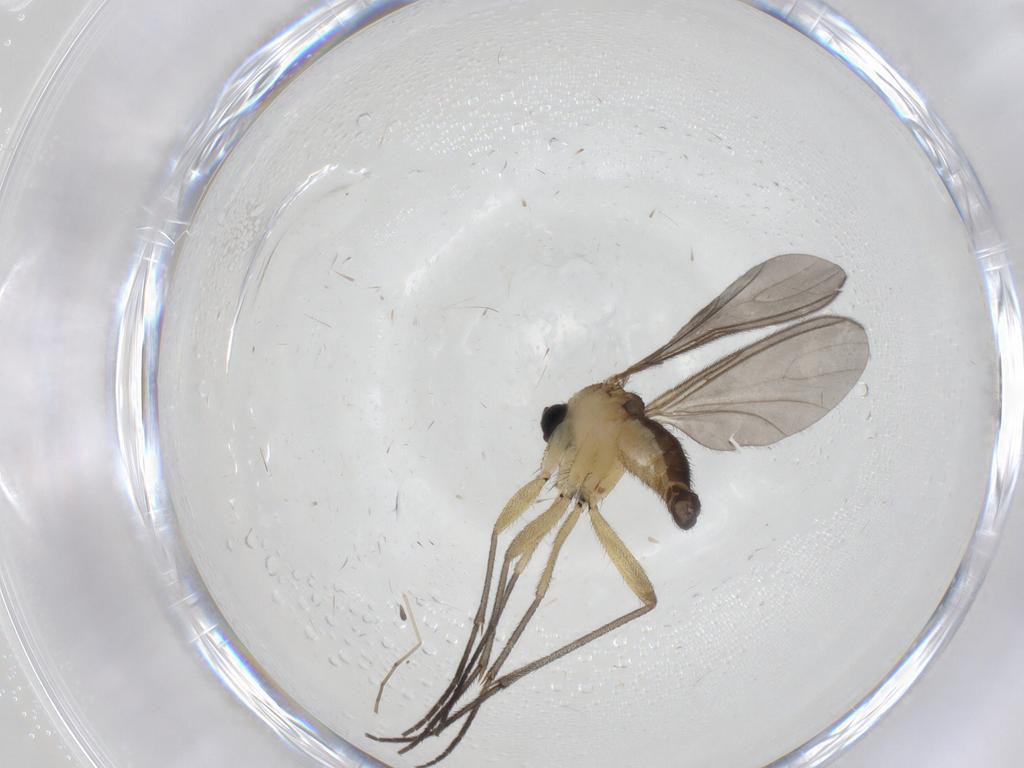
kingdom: Animalia
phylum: Arthropoda
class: Insecta
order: Diptera
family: Sciaridae
